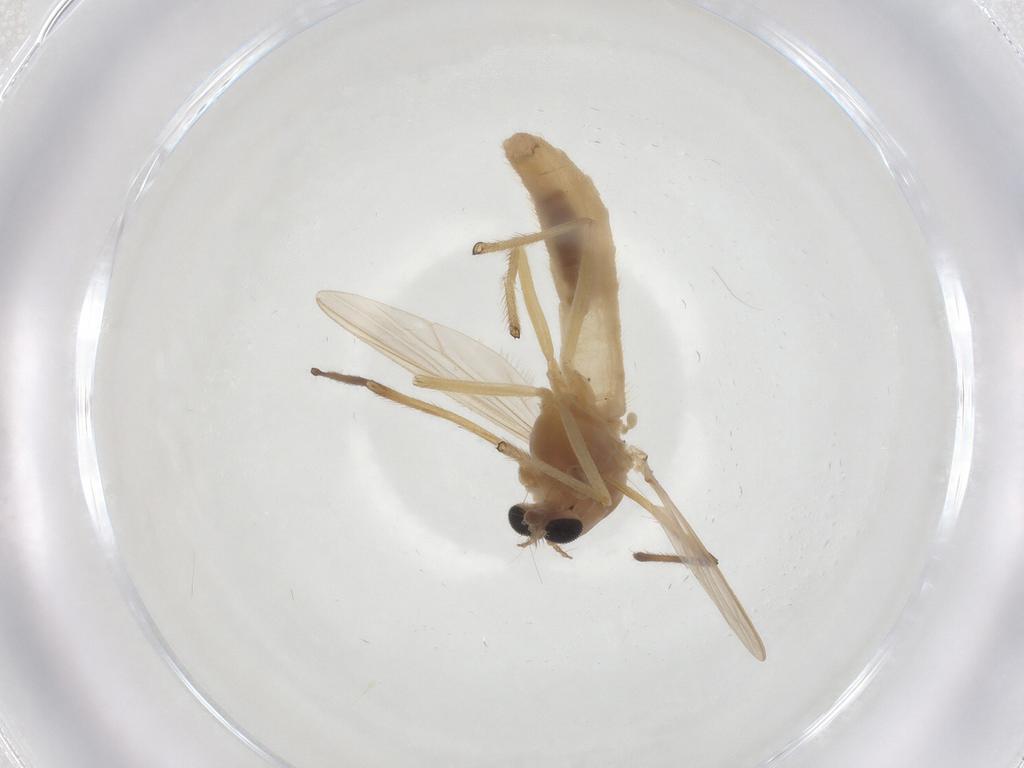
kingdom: Animalia
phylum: Arthropoda
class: Insecta
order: Diptera
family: Chironomidae
